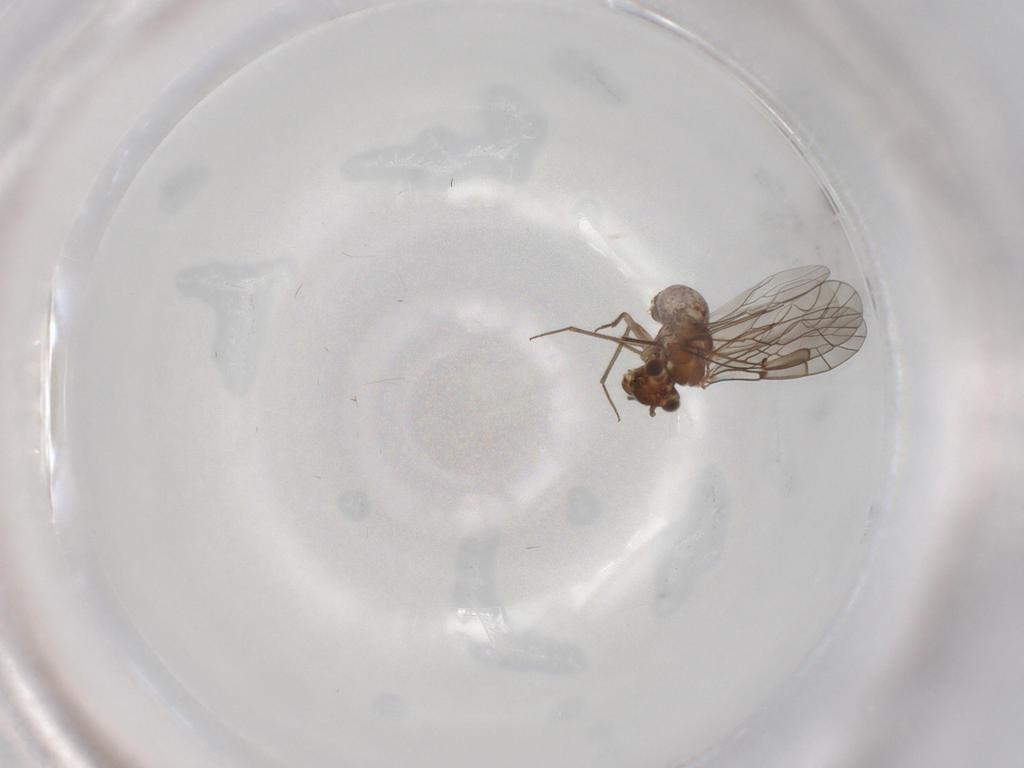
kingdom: Animalia
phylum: Arthropoda
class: Insecta
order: Psocodea
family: Lachesillidae
